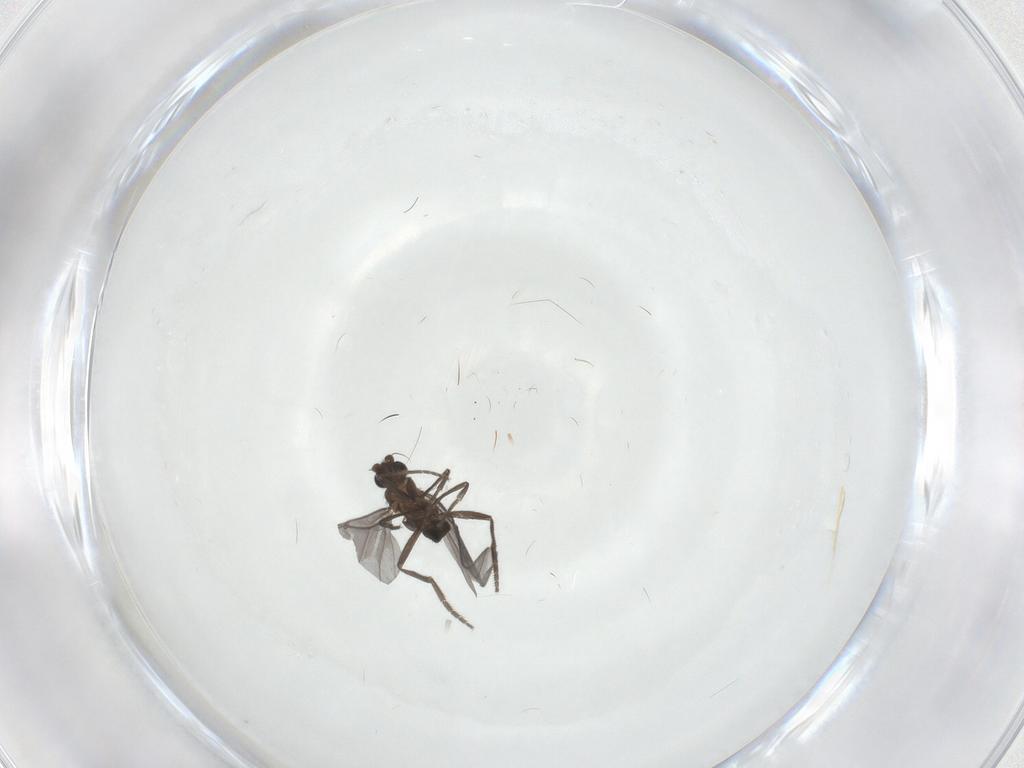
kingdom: Animalia
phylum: Arthropoda
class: Insecta
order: Diptera
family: Phoridae
